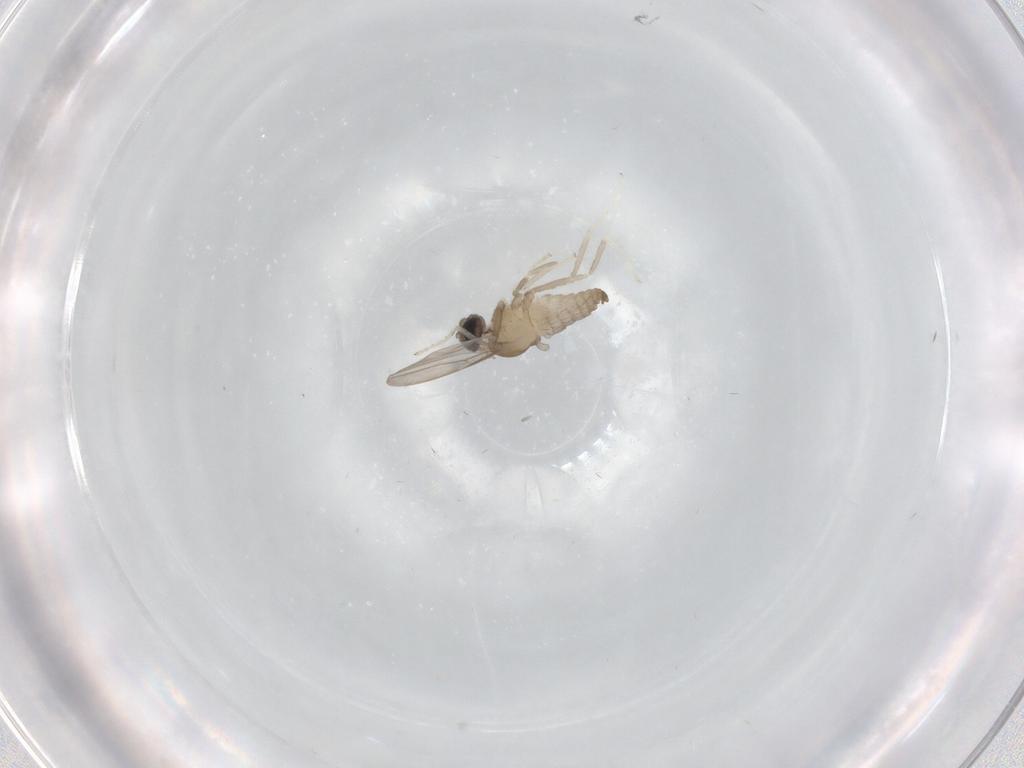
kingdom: Animalia
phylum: Arthropoda
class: Insecta
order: Diptera
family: Cecidomyiidae
